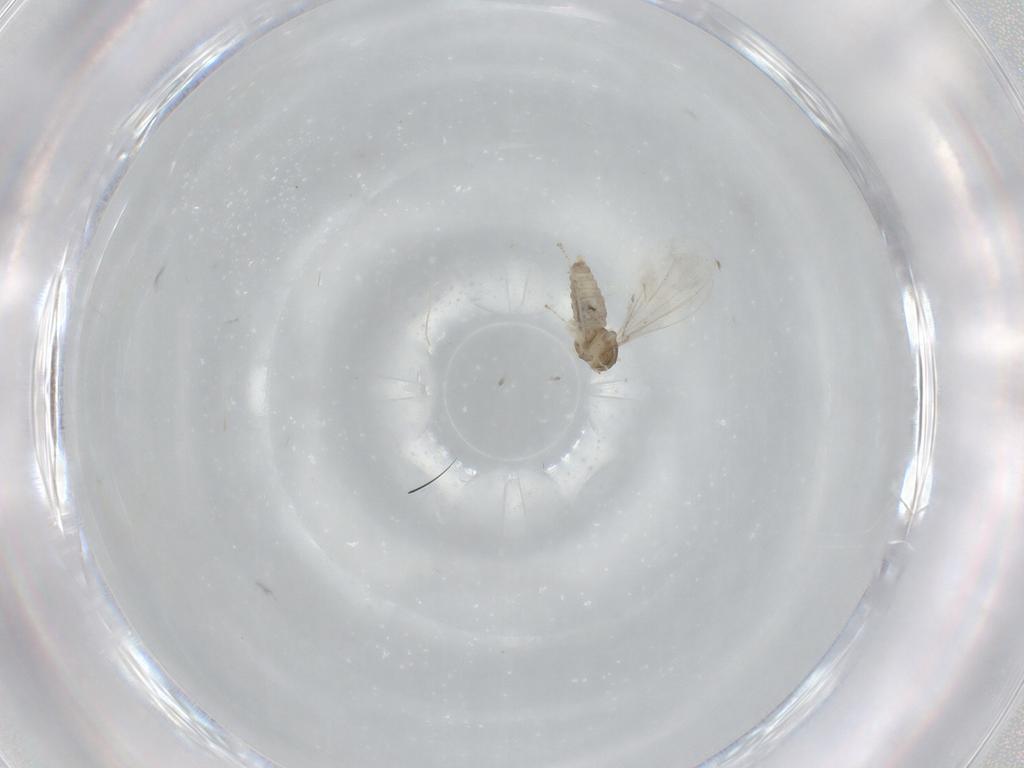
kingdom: Animalia
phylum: Arthropoda
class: Insecta
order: Diptera
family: Cecidomyiidae
